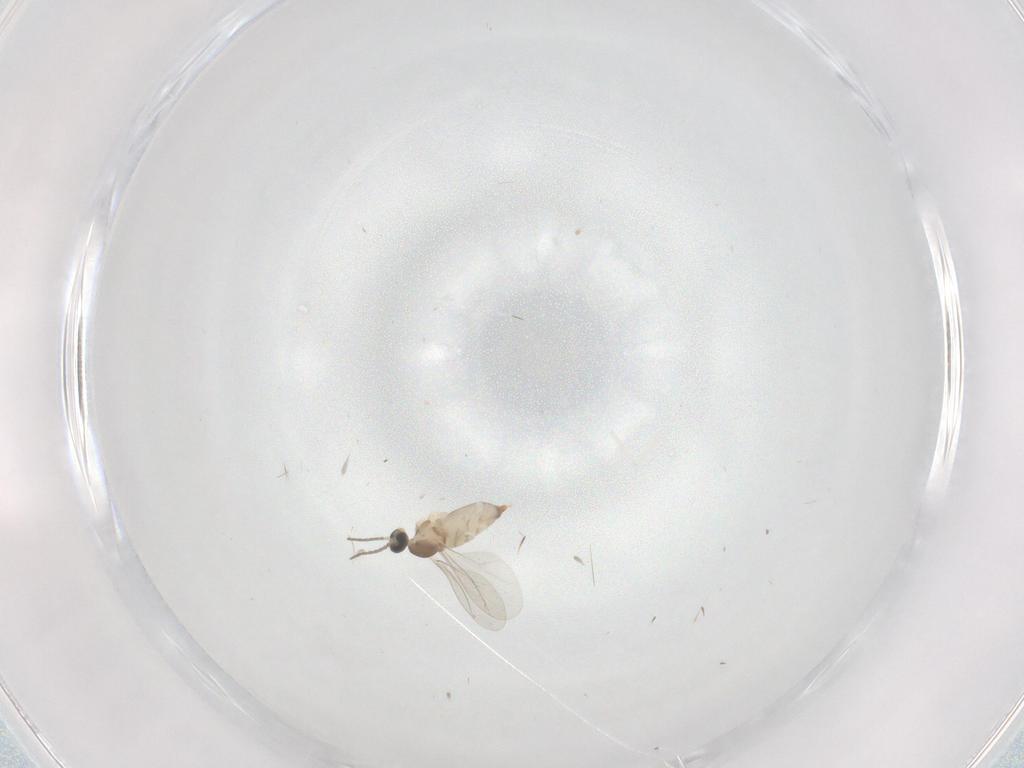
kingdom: Animalia
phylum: Arthropoda
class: Insecta
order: Diptera
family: Cecidomyiidae
